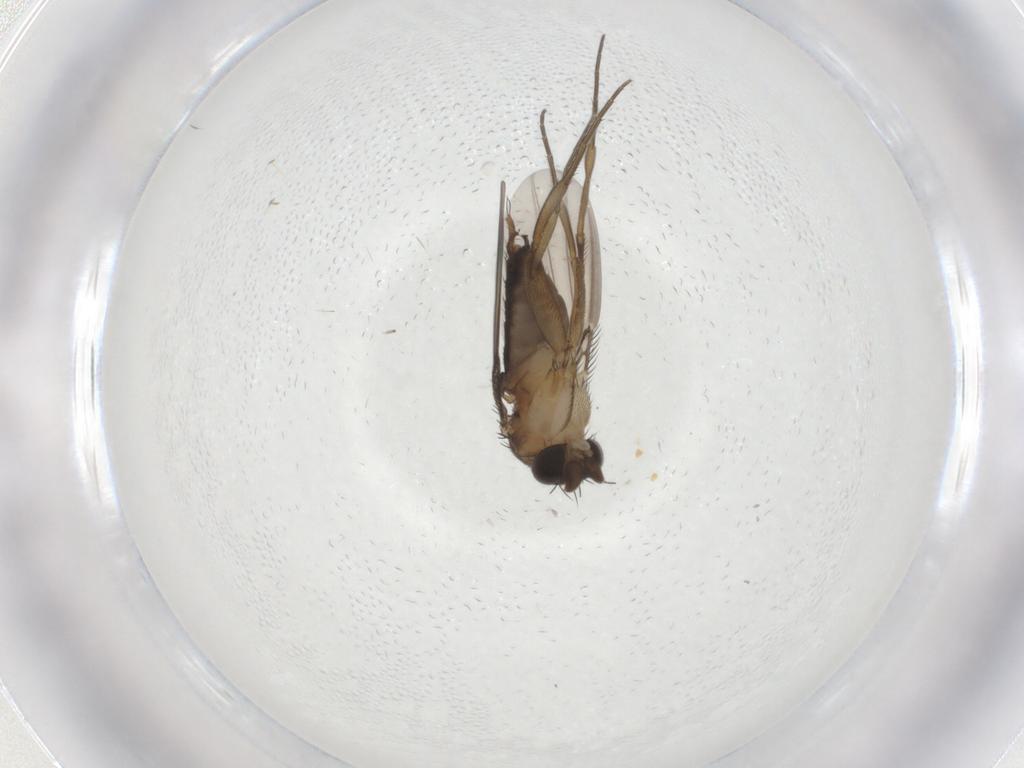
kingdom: Animalia
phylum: Arthropoda
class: Insecta
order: Diptera
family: Phoridae
